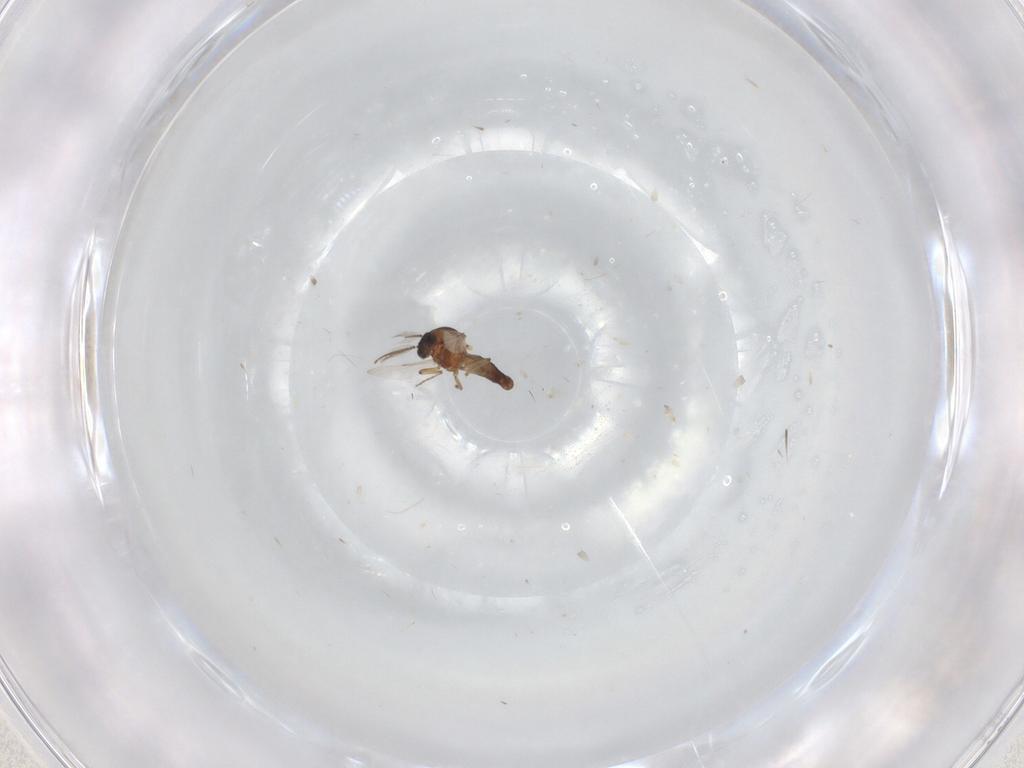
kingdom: Animalia
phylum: Arthropoda
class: Insecta
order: Diptera
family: Ceratopogonidae
